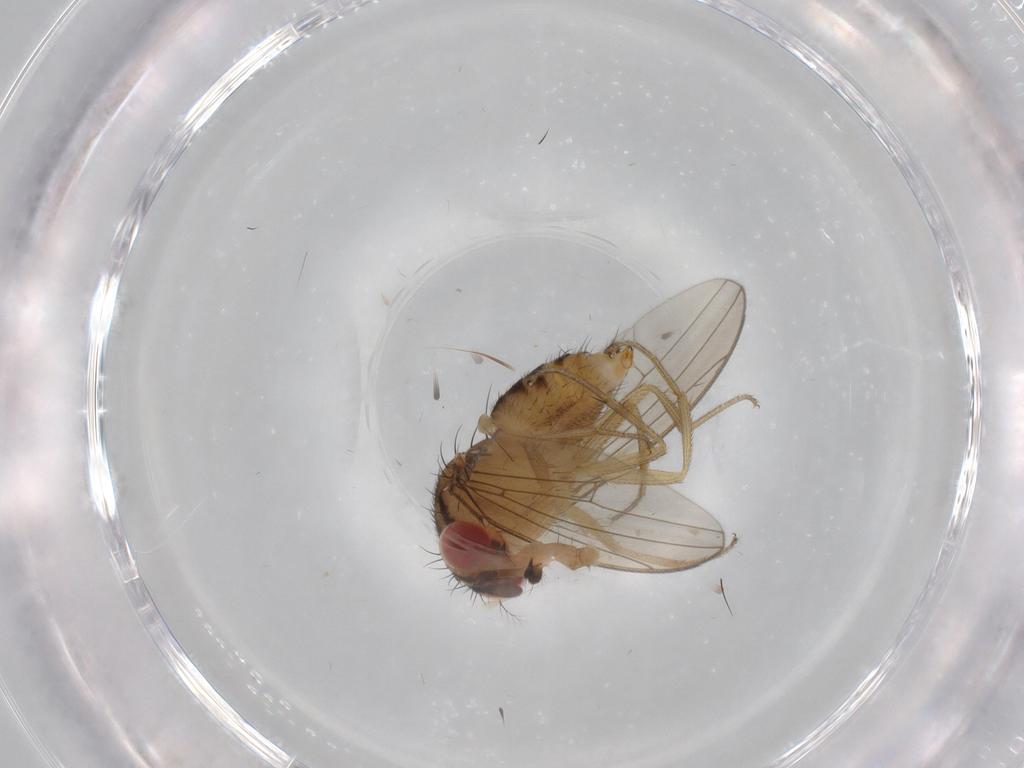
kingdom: Animalia
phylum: Arthropoda
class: Insecta
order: Diptera
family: Drosophilidae
